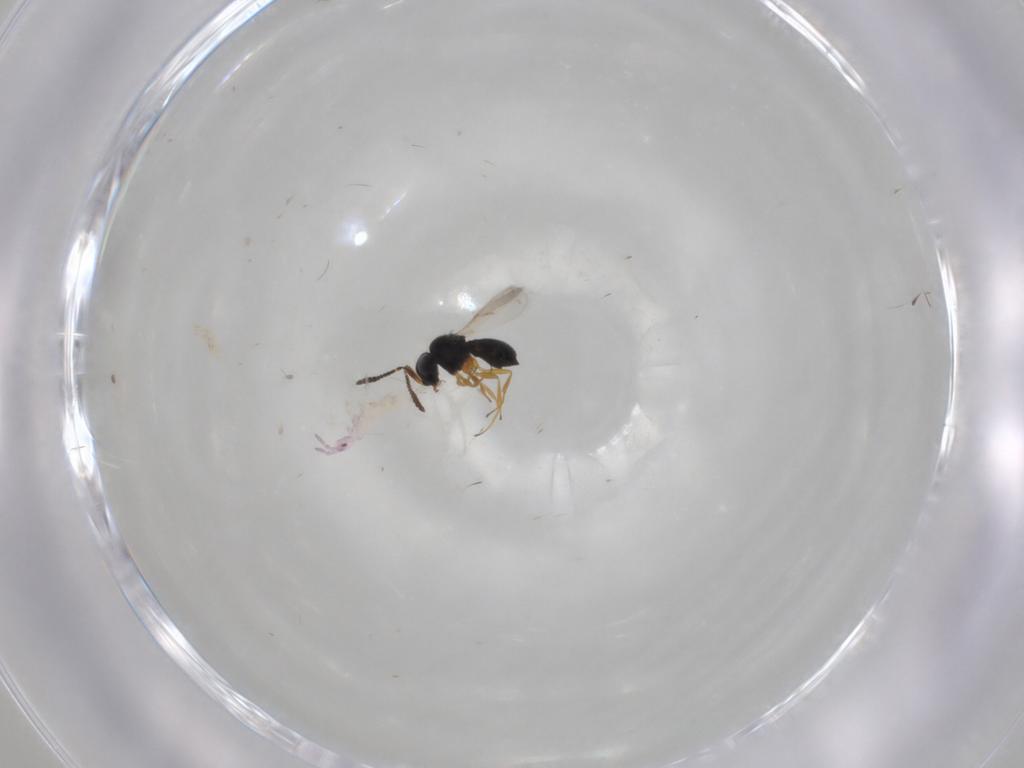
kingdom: Animalia
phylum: Arthropoda
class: Insecta
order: Hymenoptera
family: Scelionidae
